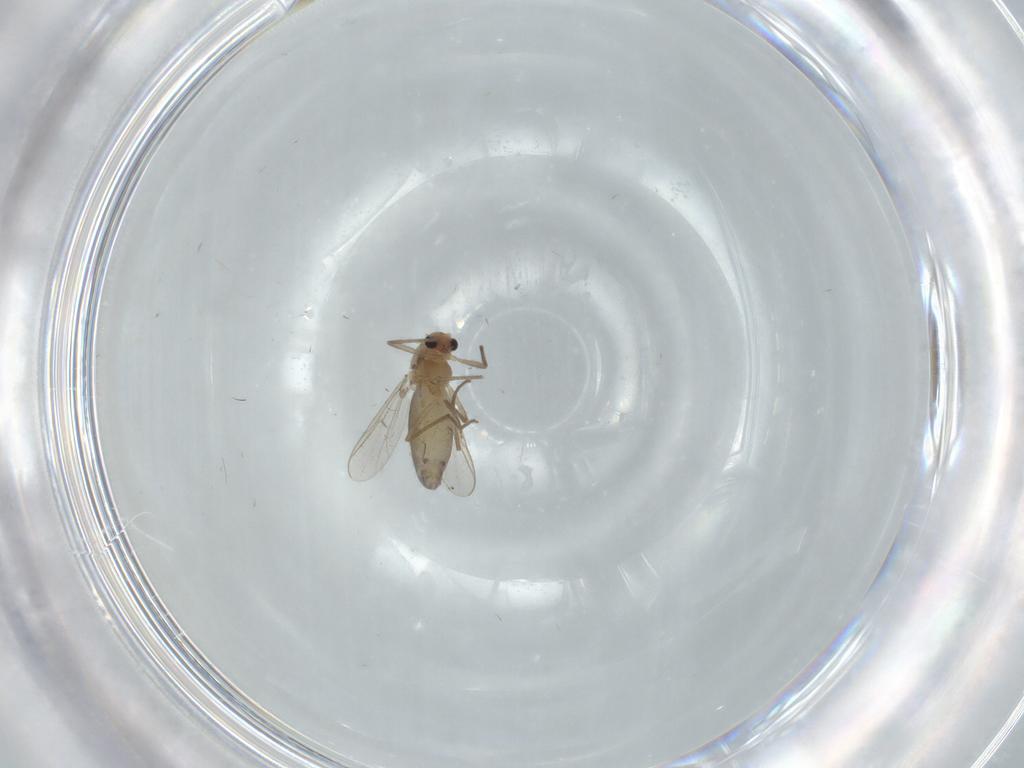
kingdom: Animalia
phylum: Arthropoda
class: Insecta
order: Diptera
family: Chironomidae
